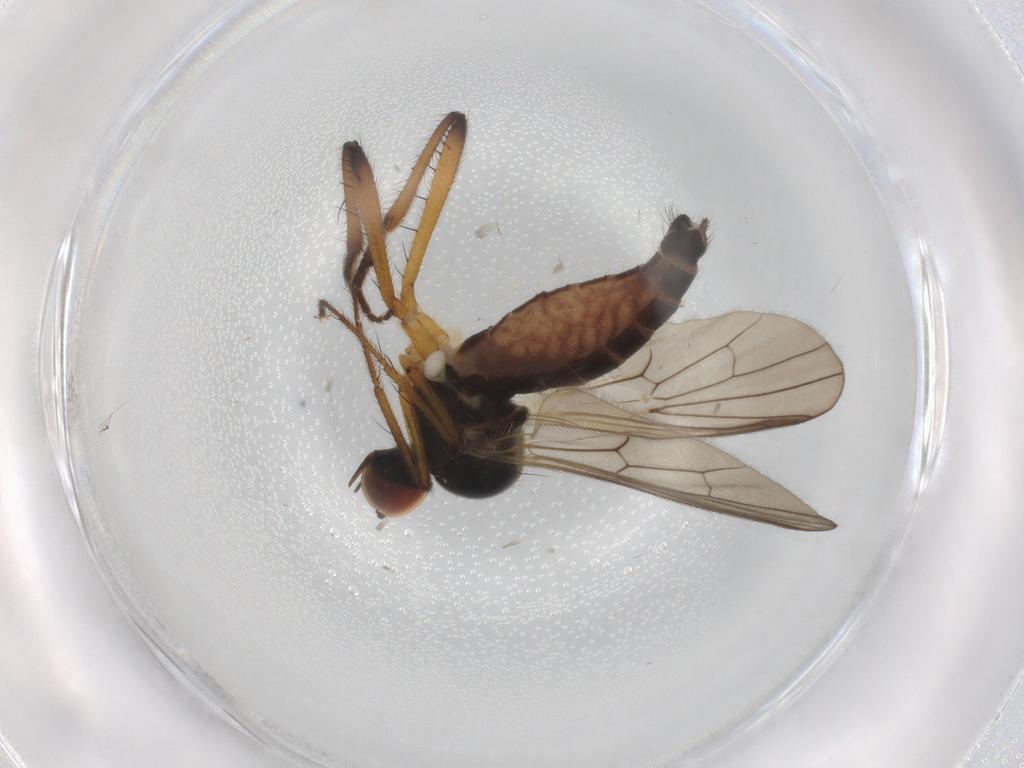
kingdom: Animalia
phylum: Arthropoda
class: Insecta
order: Diptera
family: Hybotidae
